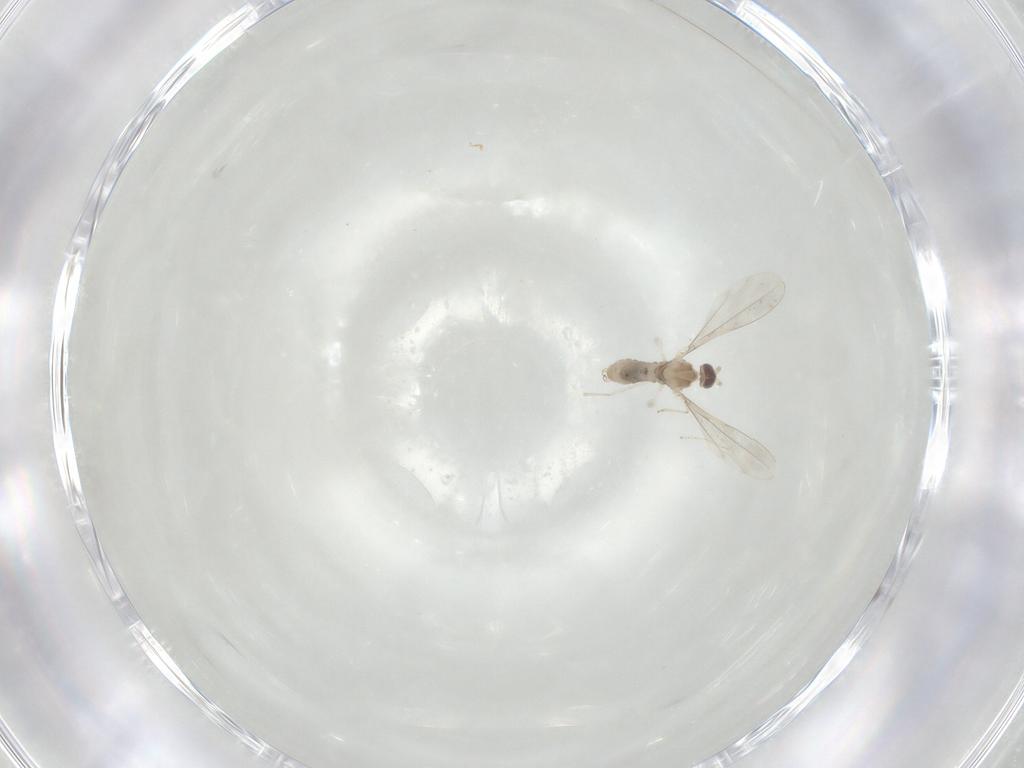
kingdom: Animalia
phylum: Arthropoda
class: Insecta
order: Diptera
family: Cecidomyiidae
